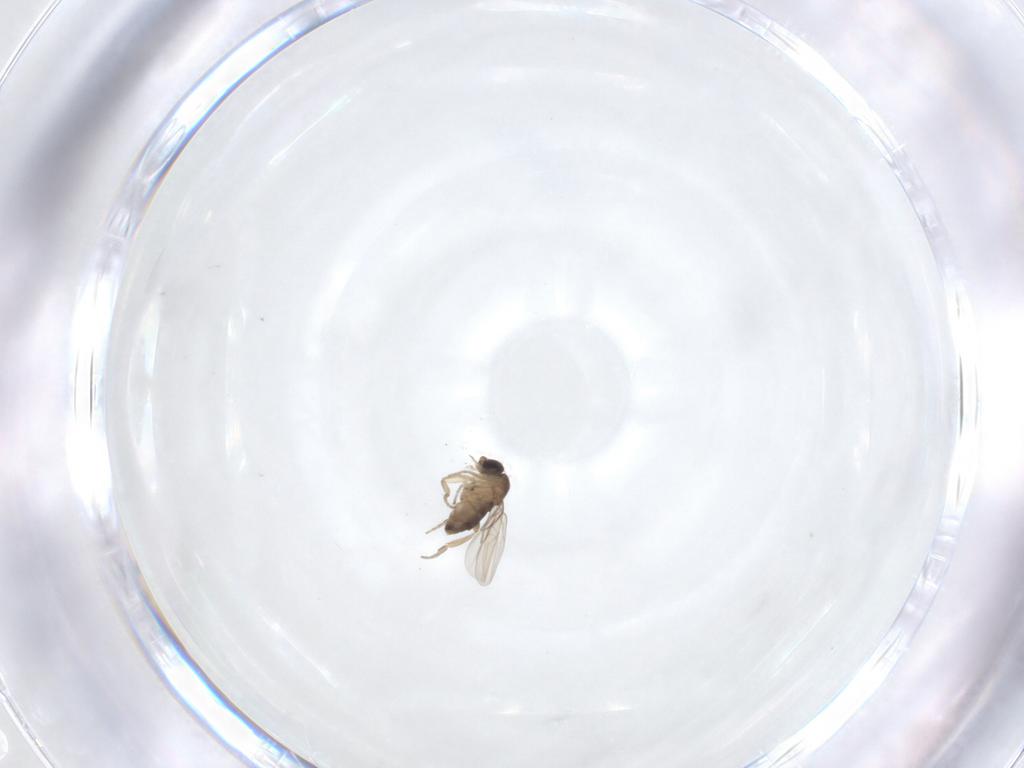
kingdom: Animalia
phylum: Arthropoda
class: Insecta
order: Diptera
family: Phoridae
